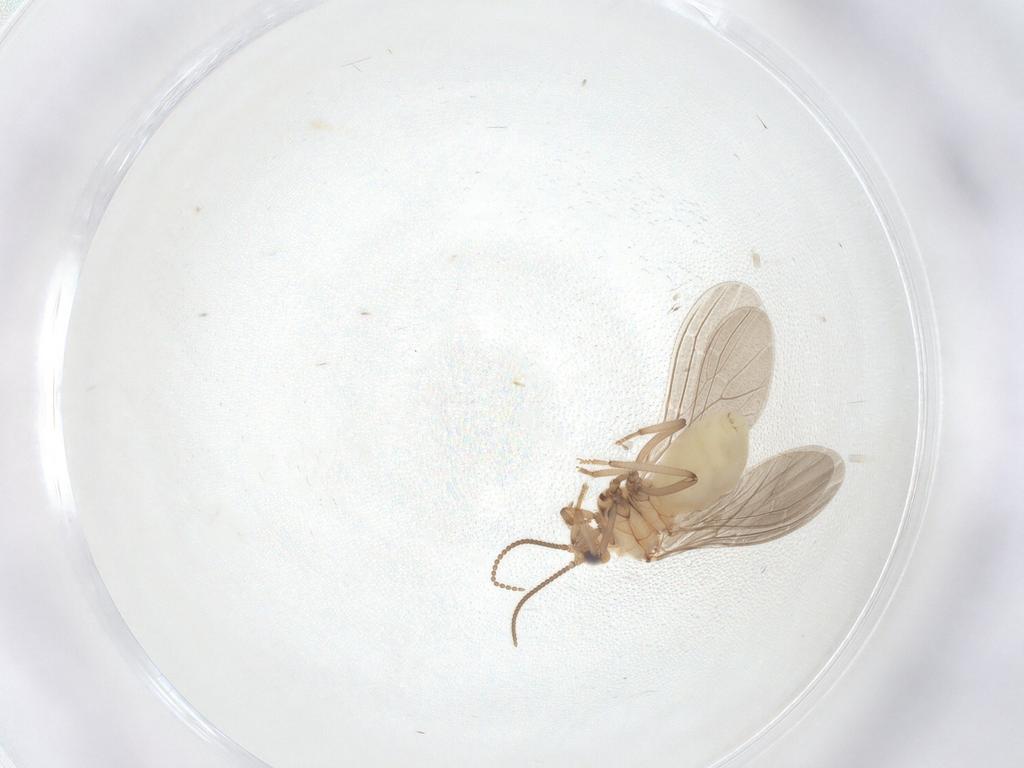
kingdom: Animalia
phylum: Arthropoda
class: Insecta
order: Neuroptera
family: Coniopterygidae
